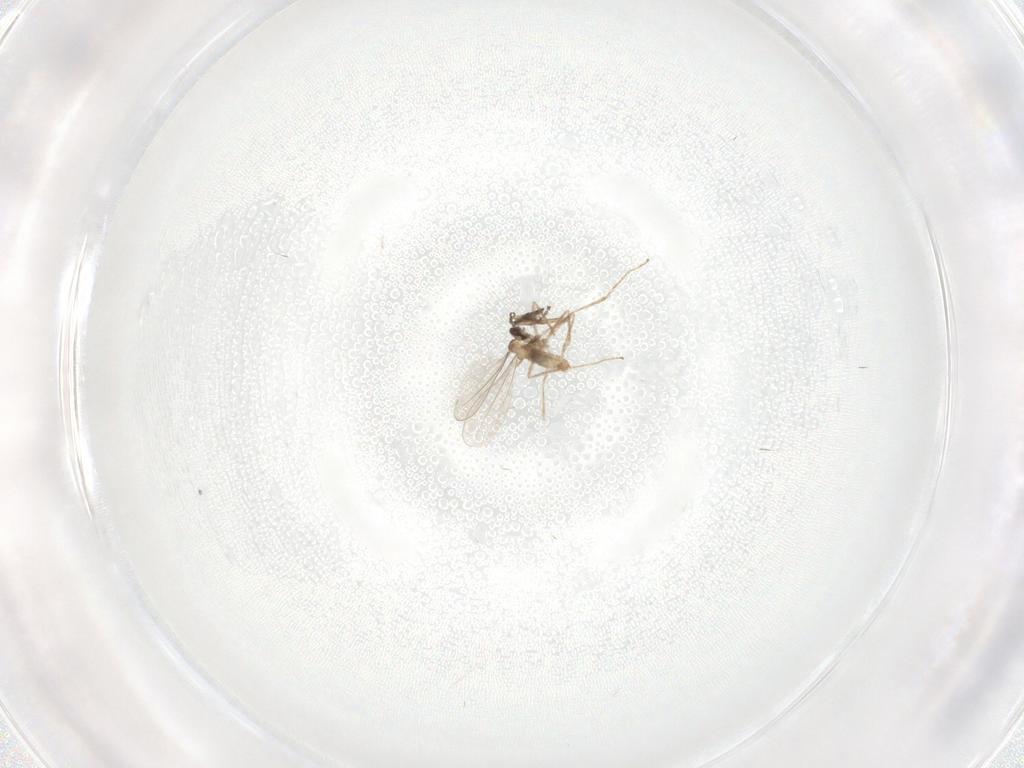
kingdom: Animalia
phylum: Arthropoda
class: Insecta
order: Diptera
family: Cecidomyiidae
